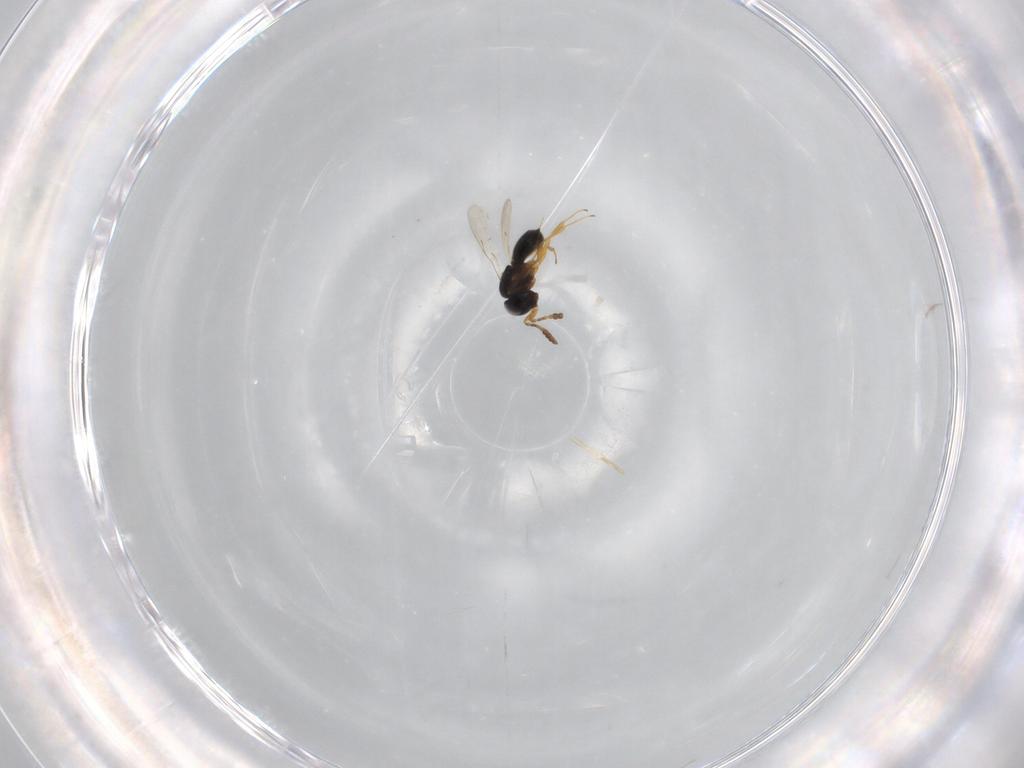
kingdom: Animalia
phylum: Arthropoda
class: Insecta
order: Hymenoptera
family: Scelionidae
